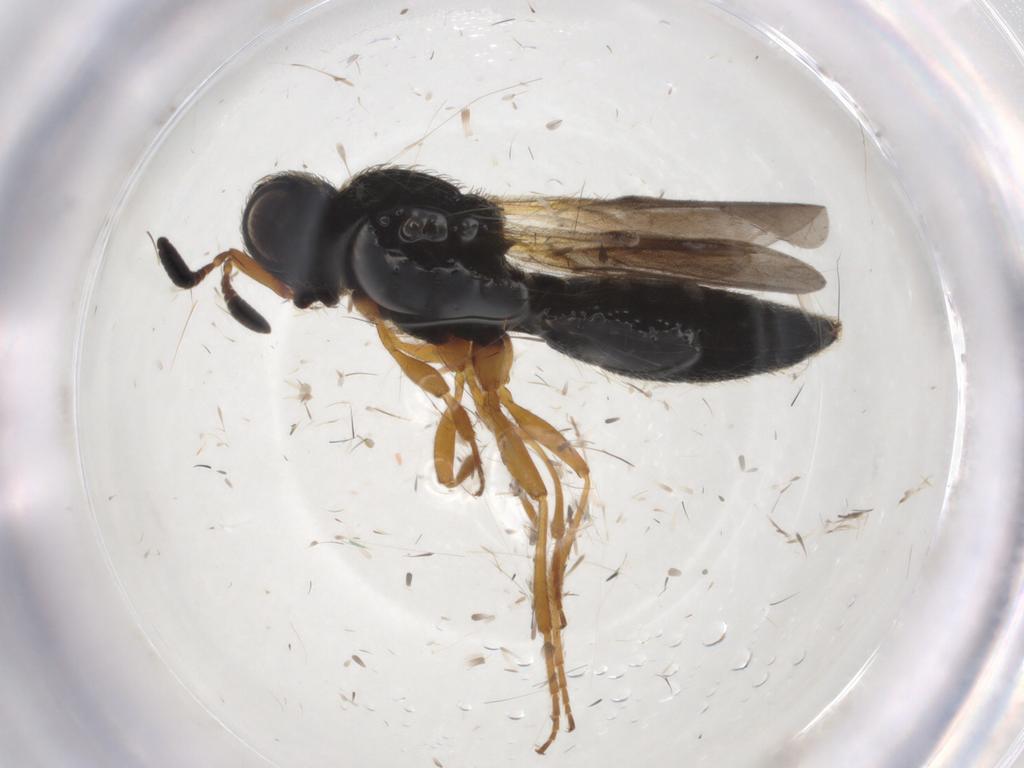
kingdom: Animalia
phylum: Arthropoda
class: Insecta
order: Hymenoptera
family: Scelionidae
